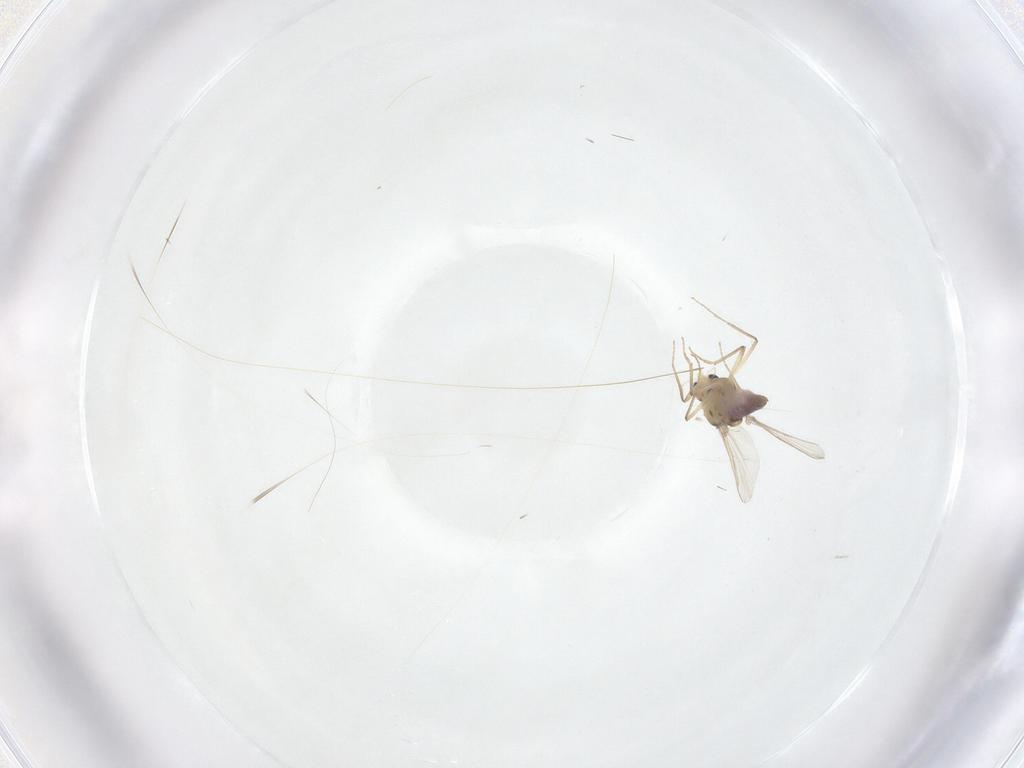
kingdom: Animalia
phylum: Arthropoda
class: Insecta
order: Diptera
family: Chironomidae
